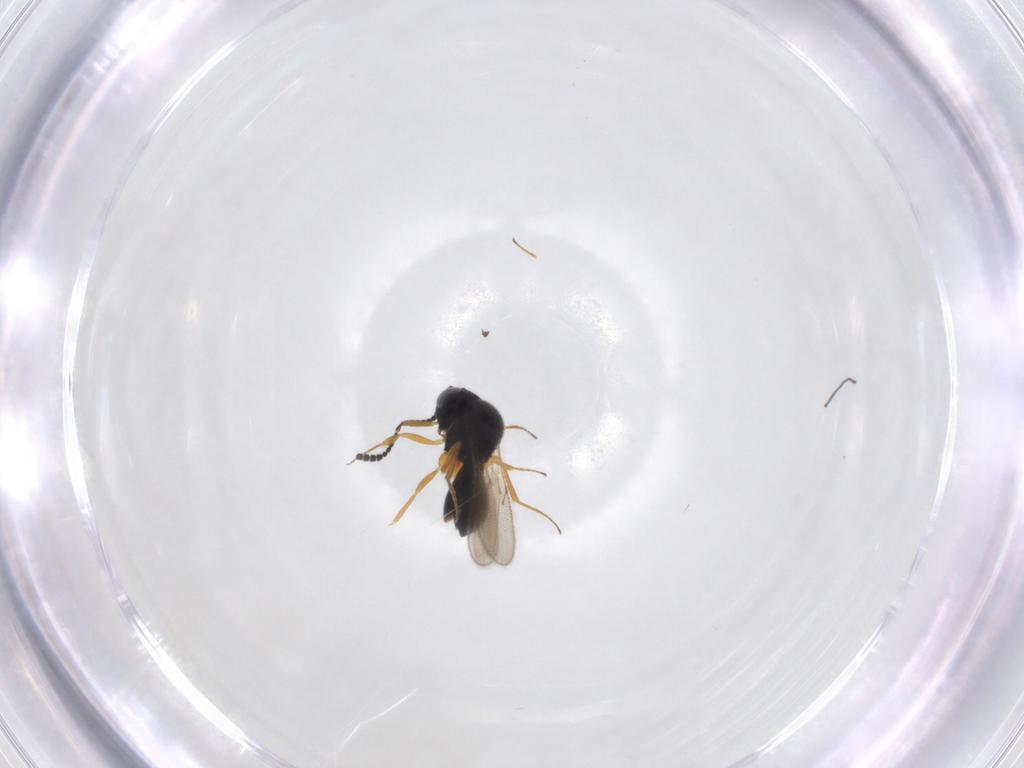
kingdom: Animalia
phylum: Arthropoda
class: Insecta
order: Hymenoptera
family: Scelionidae
